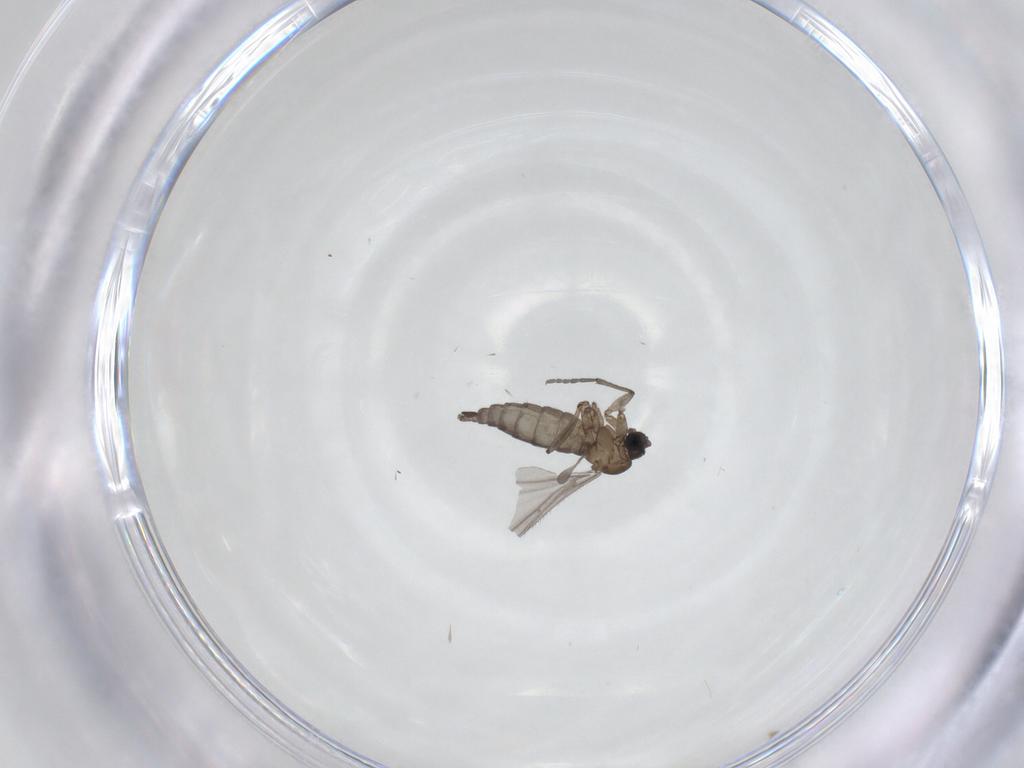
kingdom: Animalia
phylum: Arthropoda
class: Insecta
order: Diptera
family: Sciaridae
